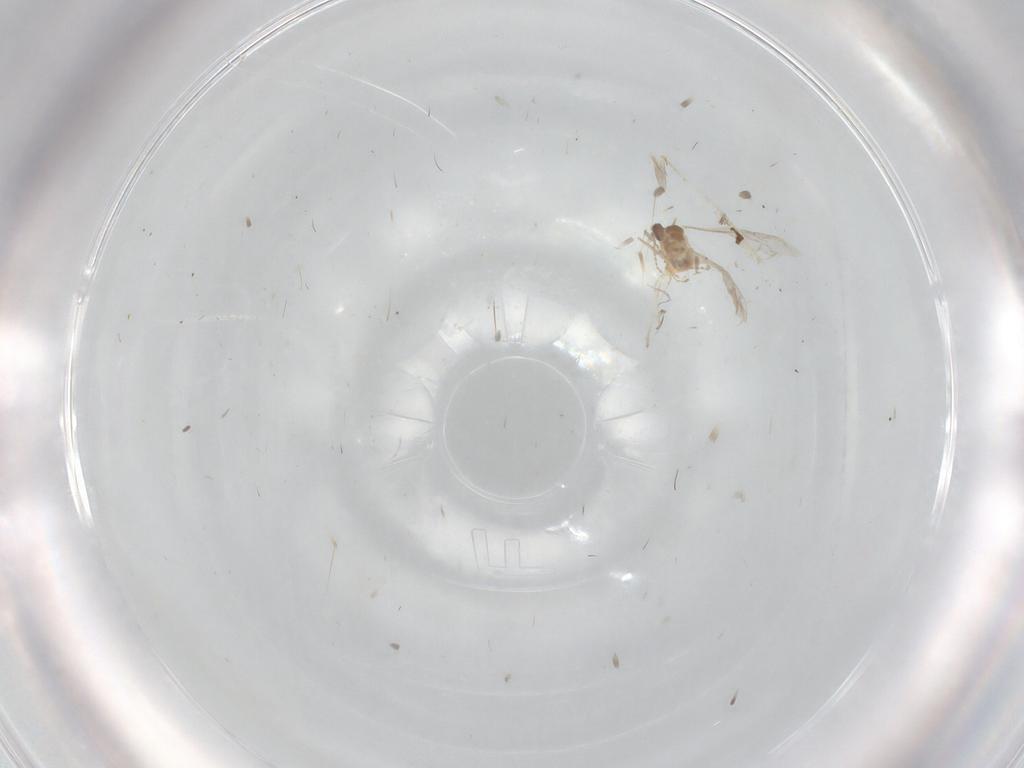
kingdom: Animalia
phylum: Arthropoda
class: Insecta
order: Diptera
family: Cecidomyiidae
